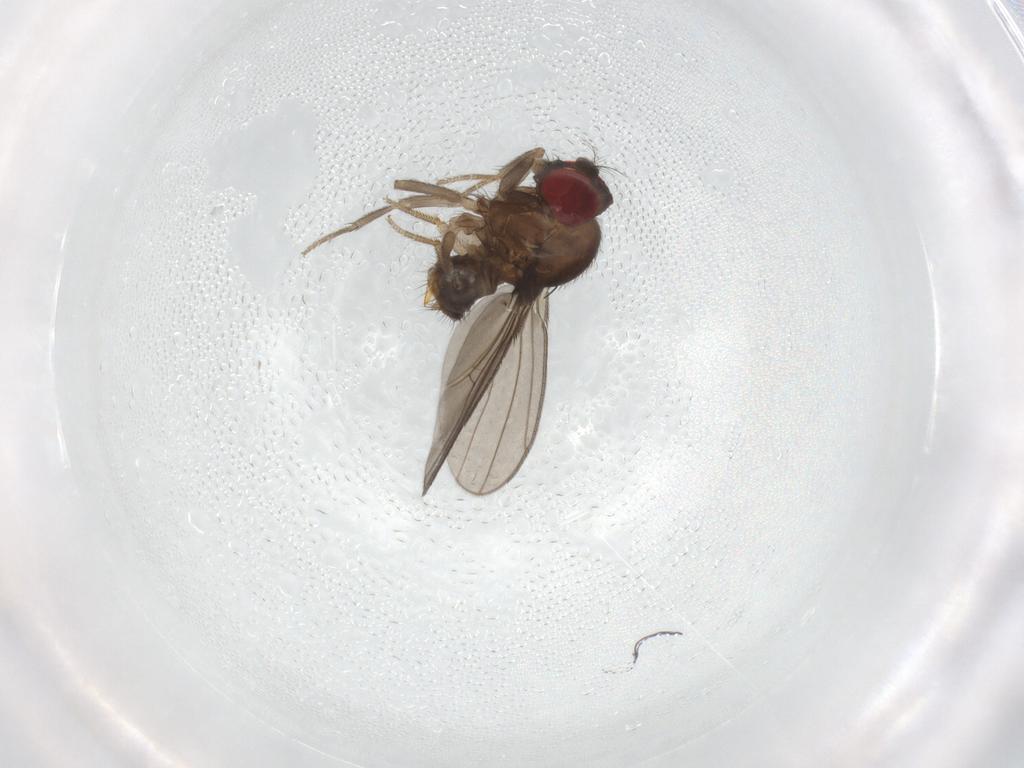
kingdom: Animalia
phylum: Arthropoda
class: Insecta
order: Diptera
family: Drosophilidae
